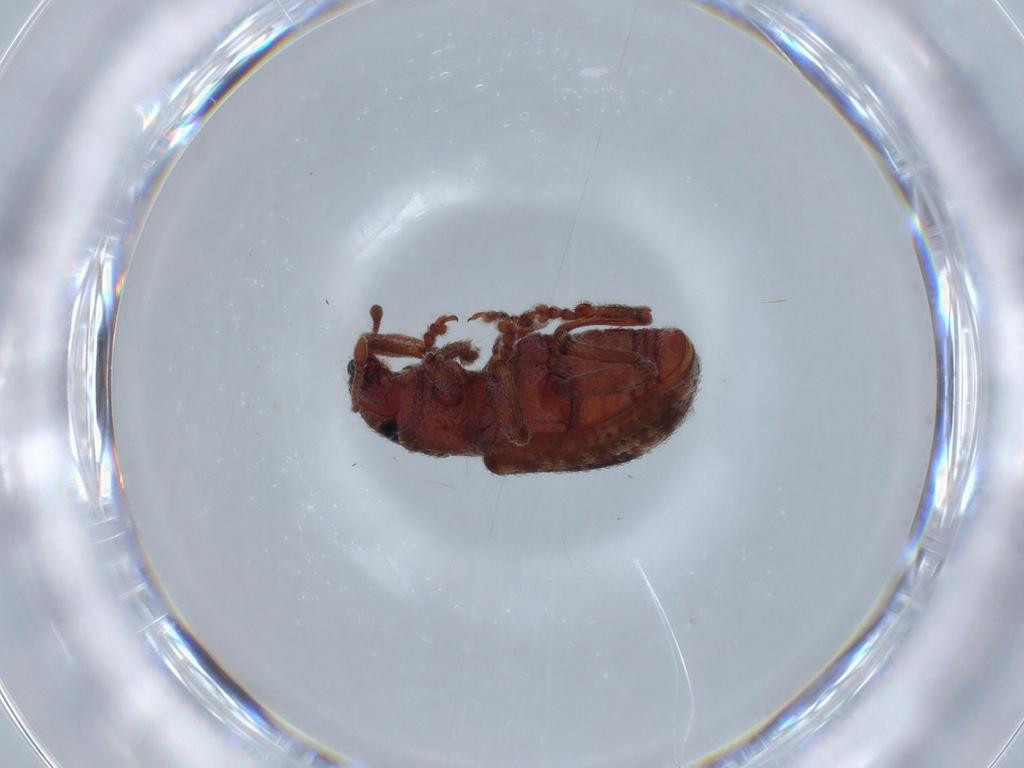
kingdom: Animalia
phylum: Arthropoda
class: Insecta
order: Coleoptera
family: Curculionidae
